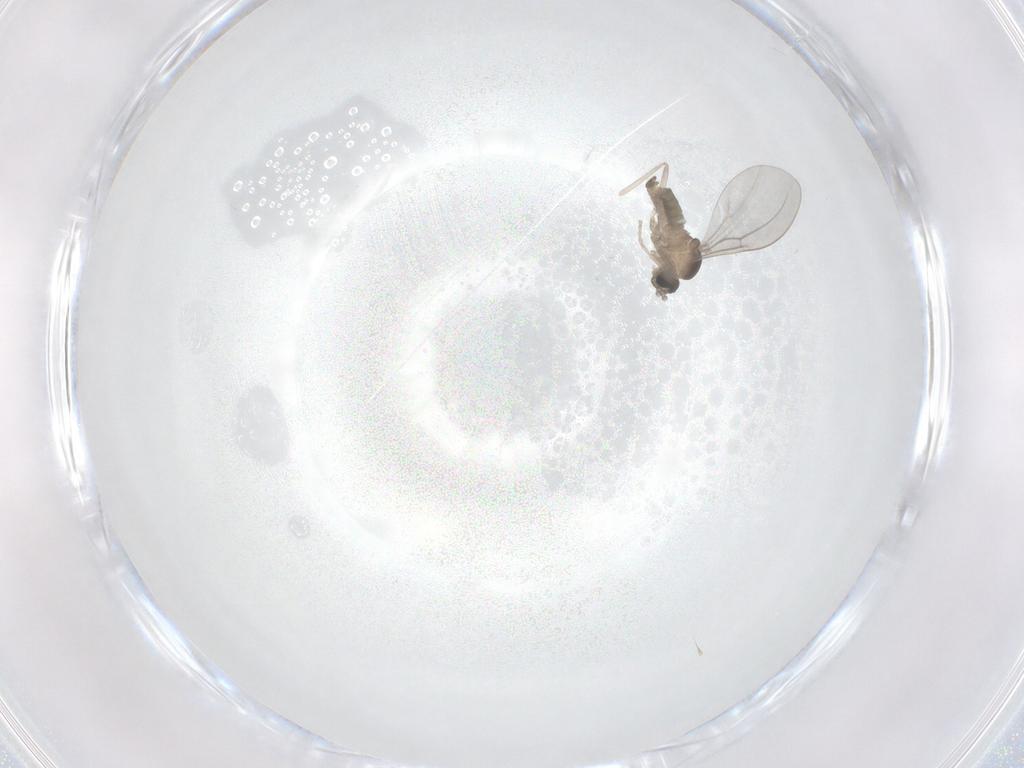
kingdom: Animalia
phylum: Arthropoda
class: Insecta
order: Diptera
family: Cecidomyiidae
